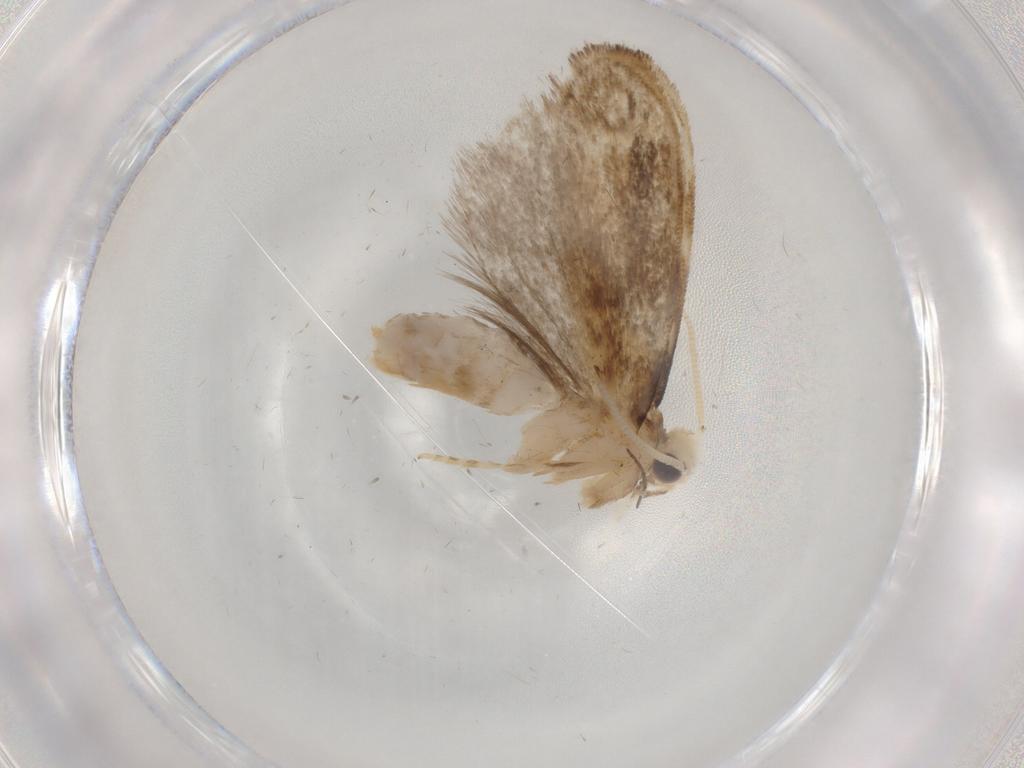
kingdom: Animalia
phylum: Arthropoda
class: Insecta
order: Lepidoptera
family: Dryadaulidae
